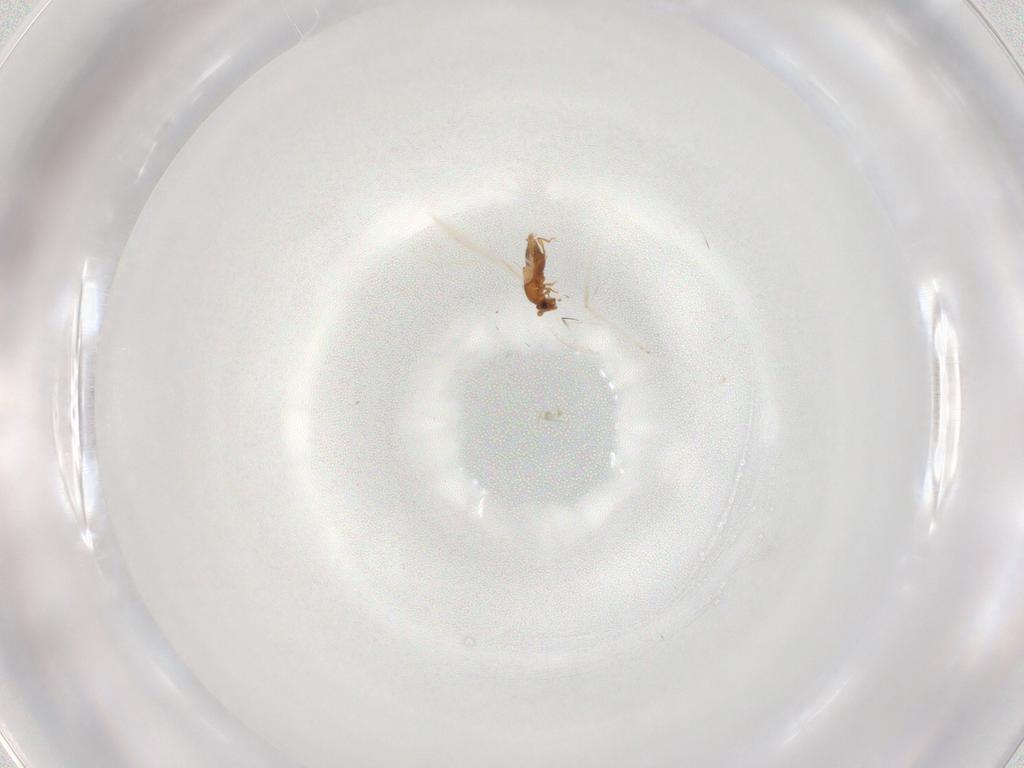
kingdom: Animalia
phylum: Arthropoda
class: Insecta
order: Coleoptera
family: Staphylinidae
